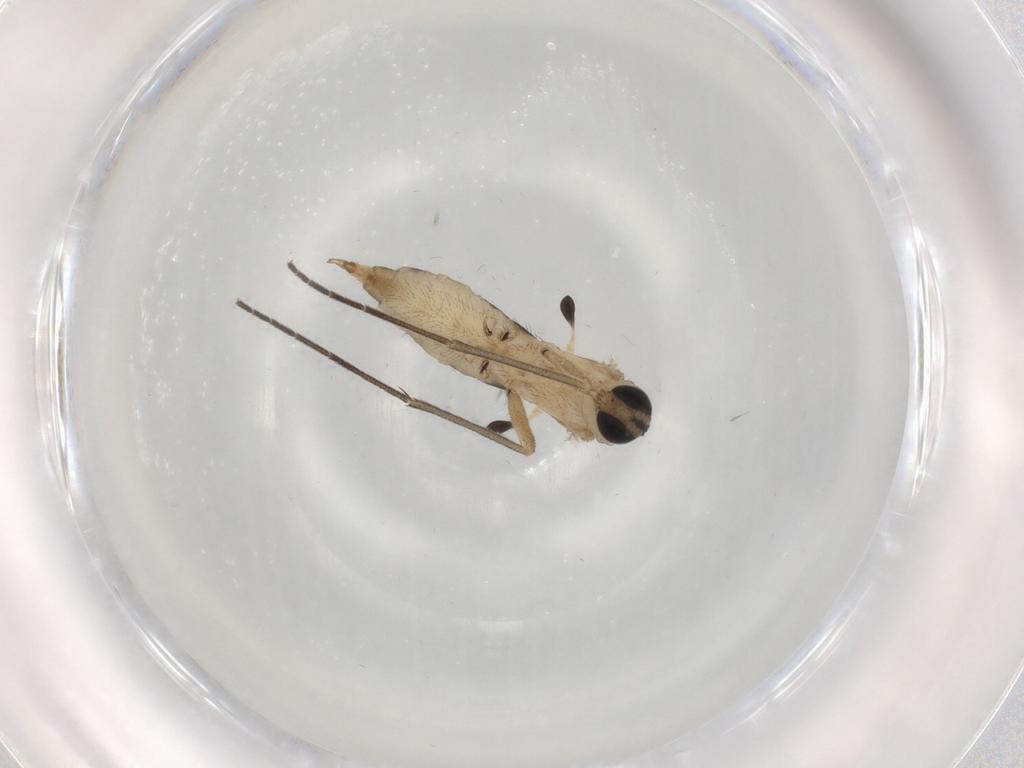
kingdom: Animalia
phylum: Arthropoda
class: Insecta
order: Diptera
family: Sciaridae
